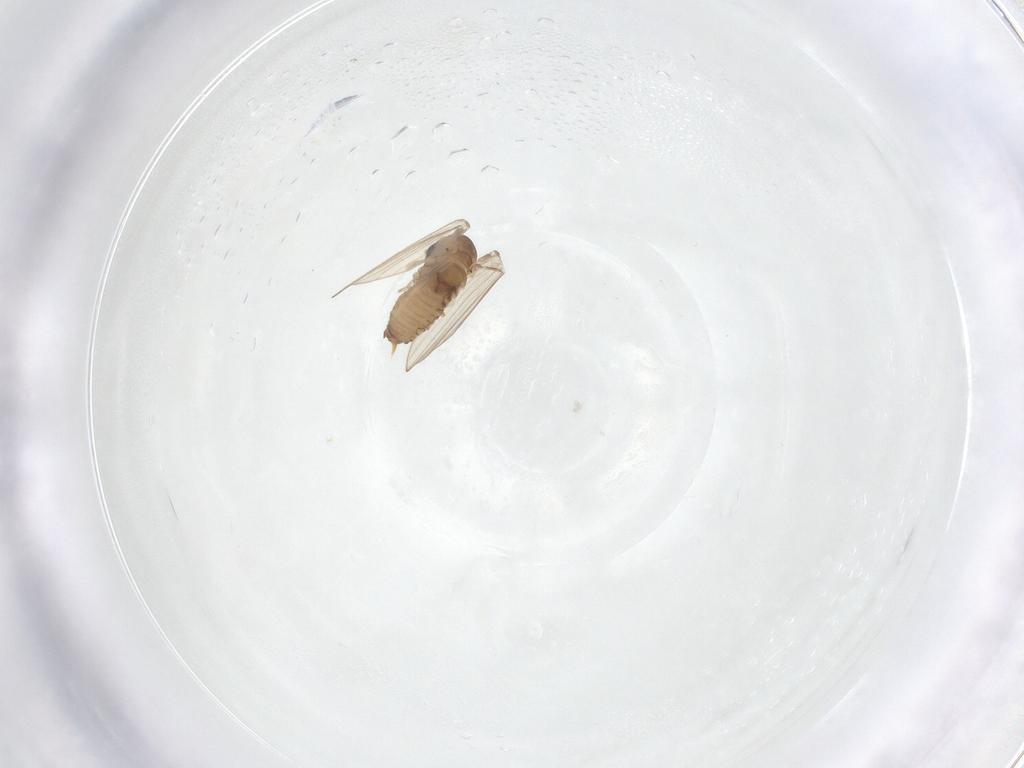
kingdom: Animalia
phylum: Arthropoda
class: Insecta
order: Diptera
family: Psychodidae
